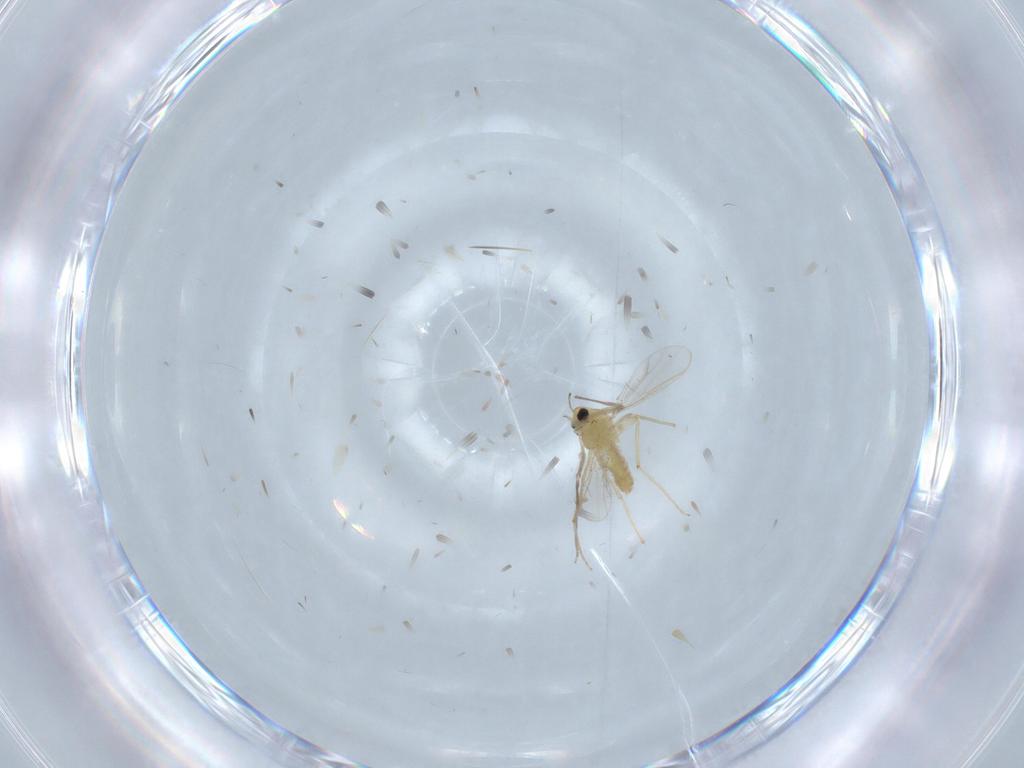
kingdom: Animalia
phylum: Arthropoda
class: Insecta
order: Diptera
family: Chironomidae
